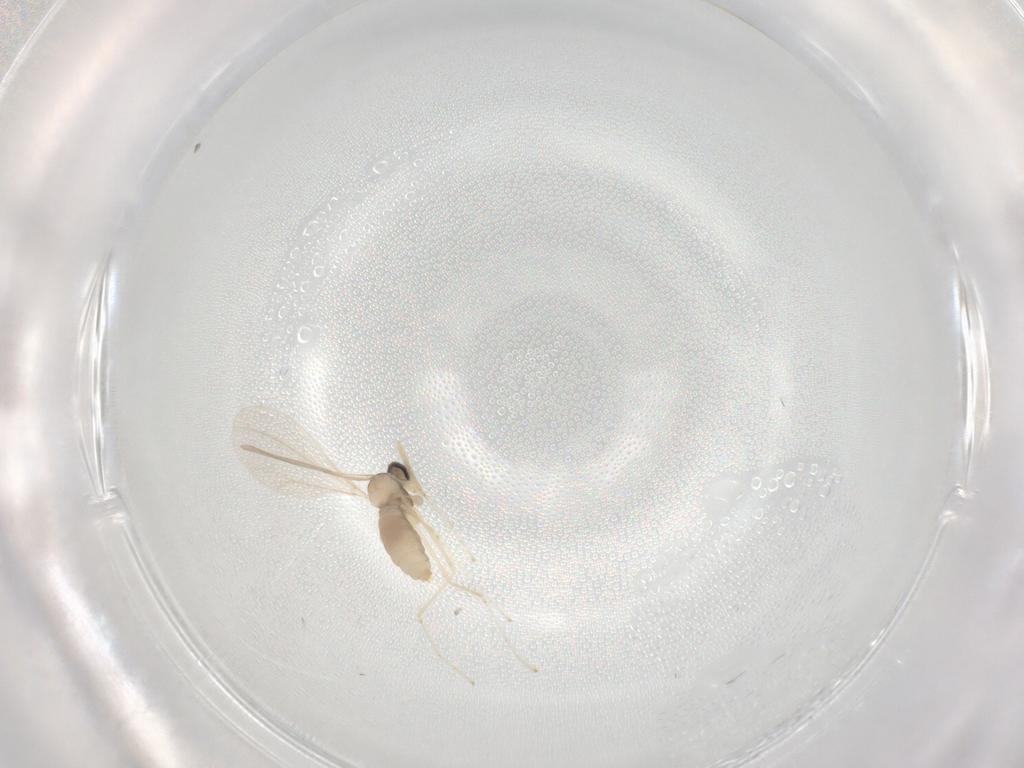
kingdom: Animalia
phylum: Arthropoda
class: Insecta
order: Diptera
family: Cecidomyiidae
